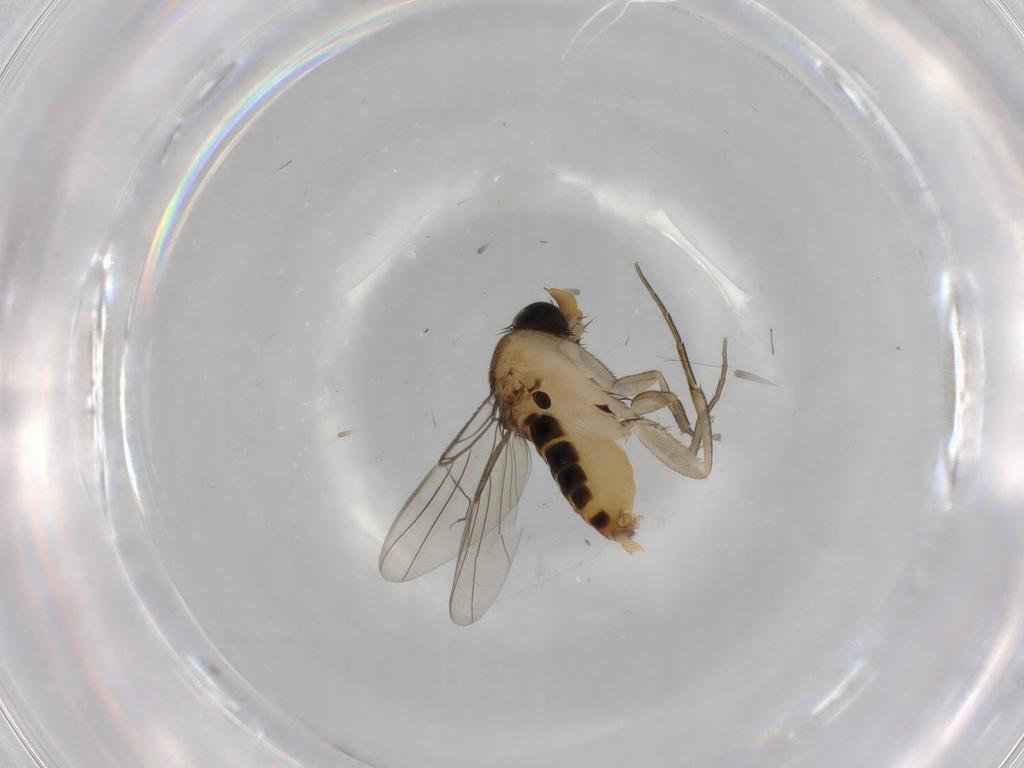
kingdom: Animalia
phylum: Arthropoda
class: Insecta
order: Diptera
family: Phoridae
